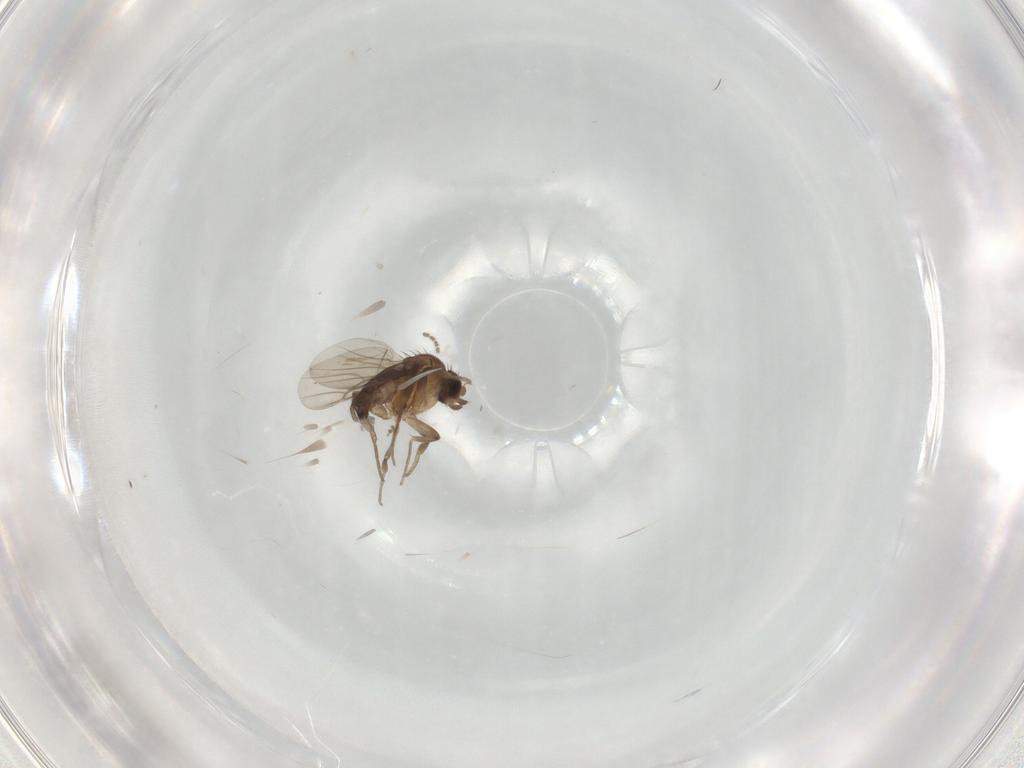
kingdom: Animalia
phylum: Arthropoda
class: Insecta
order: Diptera
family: Phoridae
